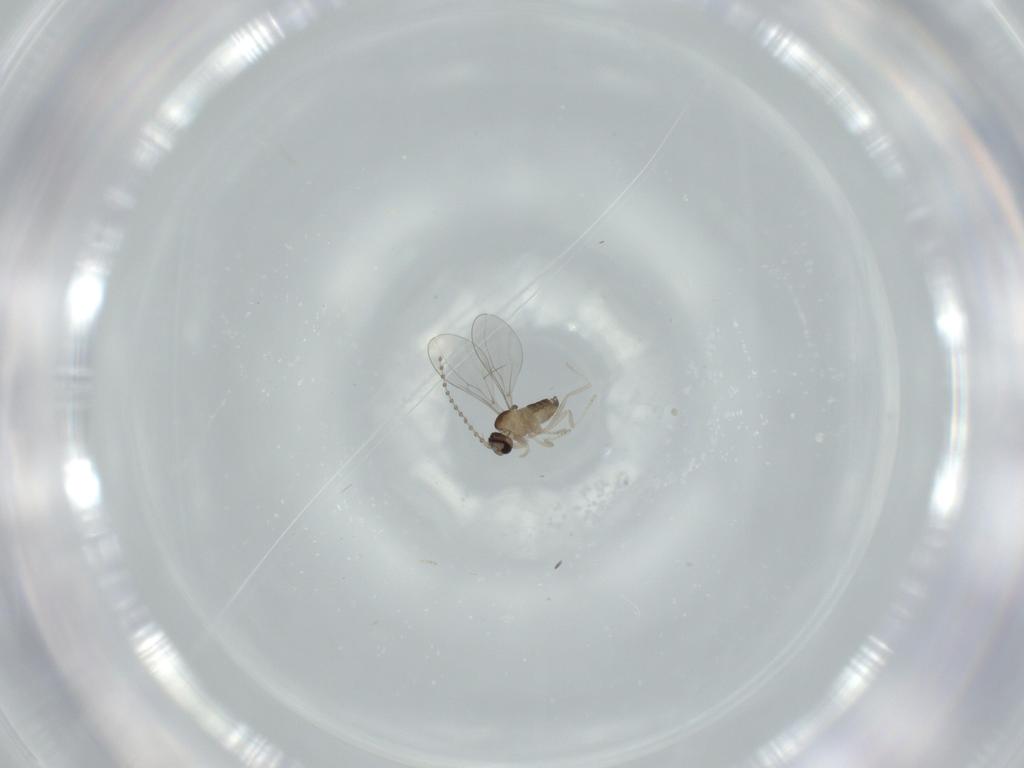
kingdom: Animalia
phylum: Arthropoda
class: Insecta
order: Diptera
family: Cecidomyiidae
